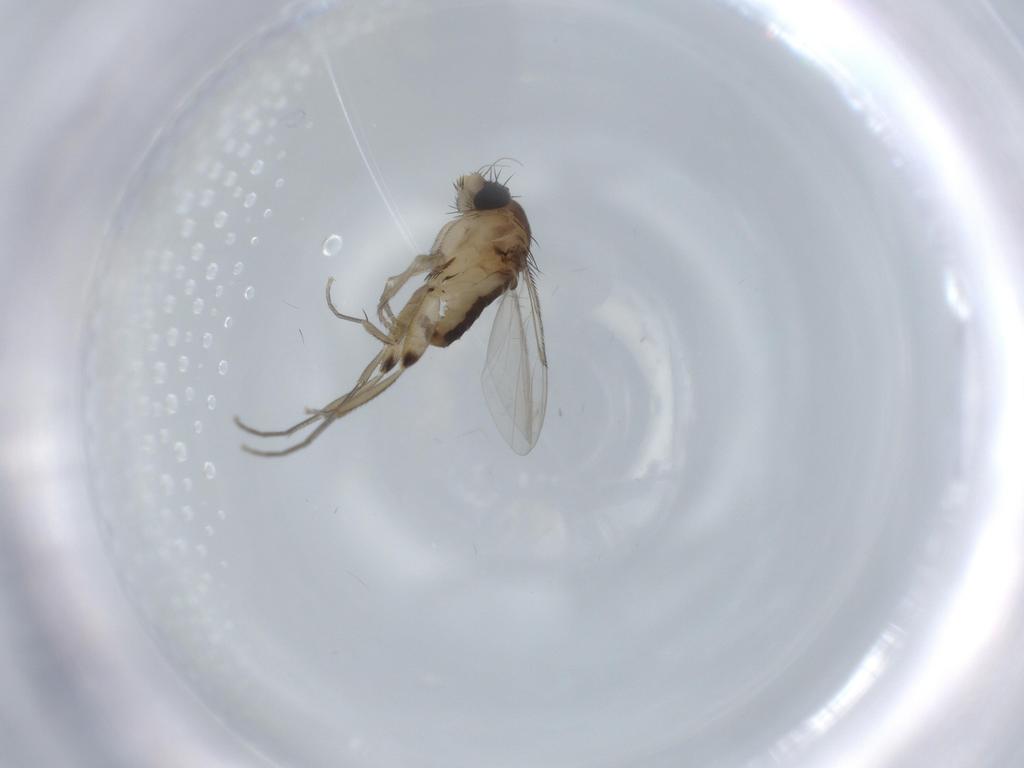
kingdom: Animalia
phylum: Arthropoda
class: Insecta
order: Diptera
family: Phoridae
